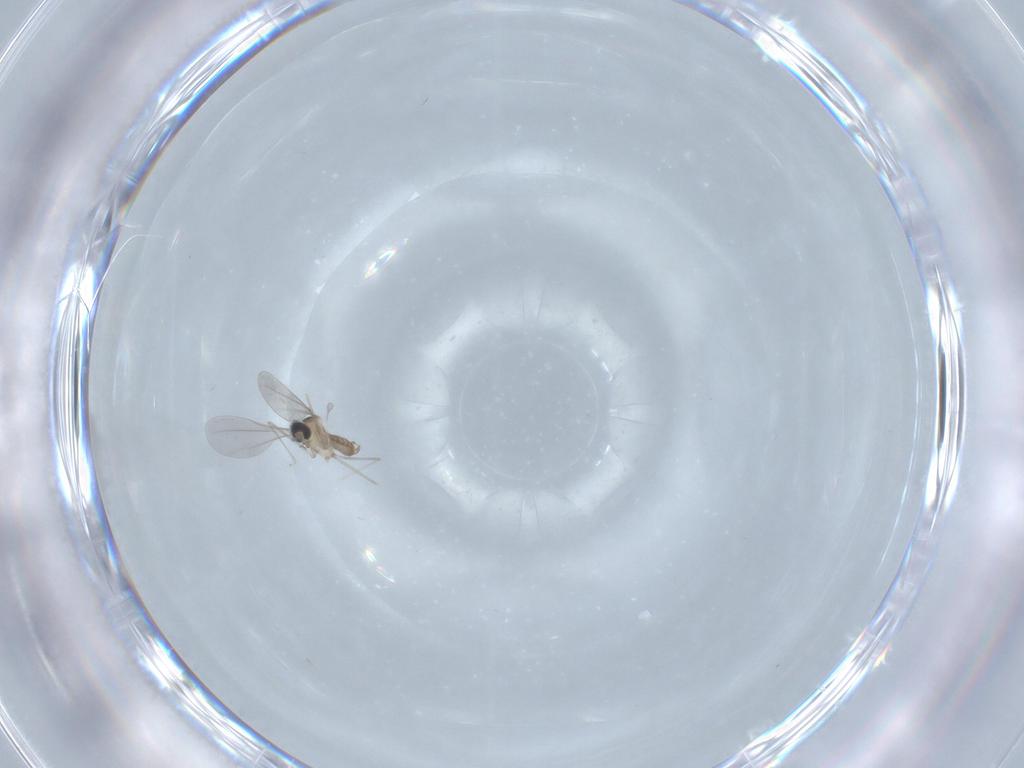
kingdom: Animalia
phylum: Arthropoda
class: Insecta
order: Diptera
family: Cecidomyiidae
